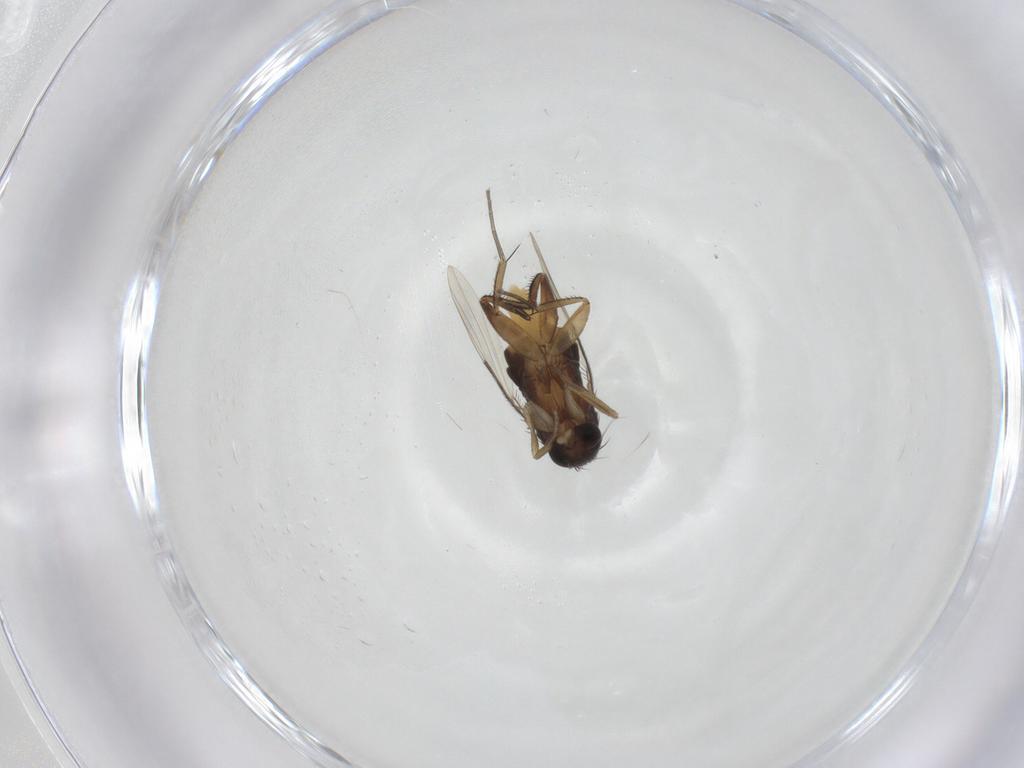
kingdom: Animalia
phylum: Arthropoda
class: Insecta
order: Diptera
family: Phoridae
